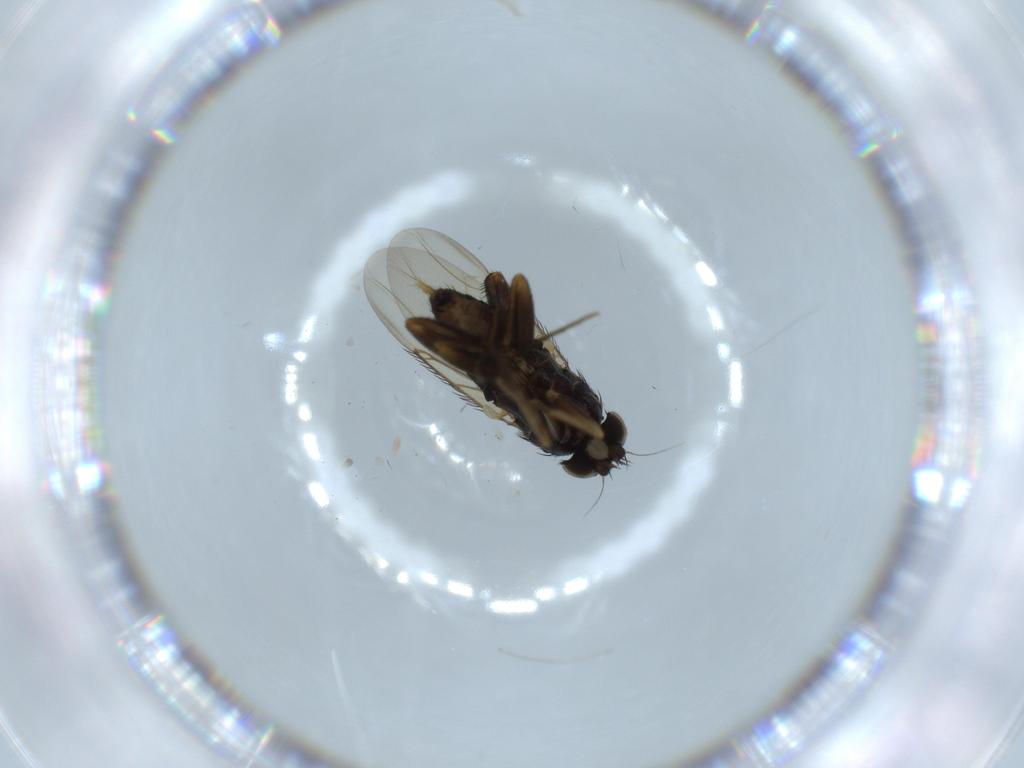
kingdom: Animalia
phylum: Arthropoda
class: Insecta
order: Diptera
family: Phoridae
